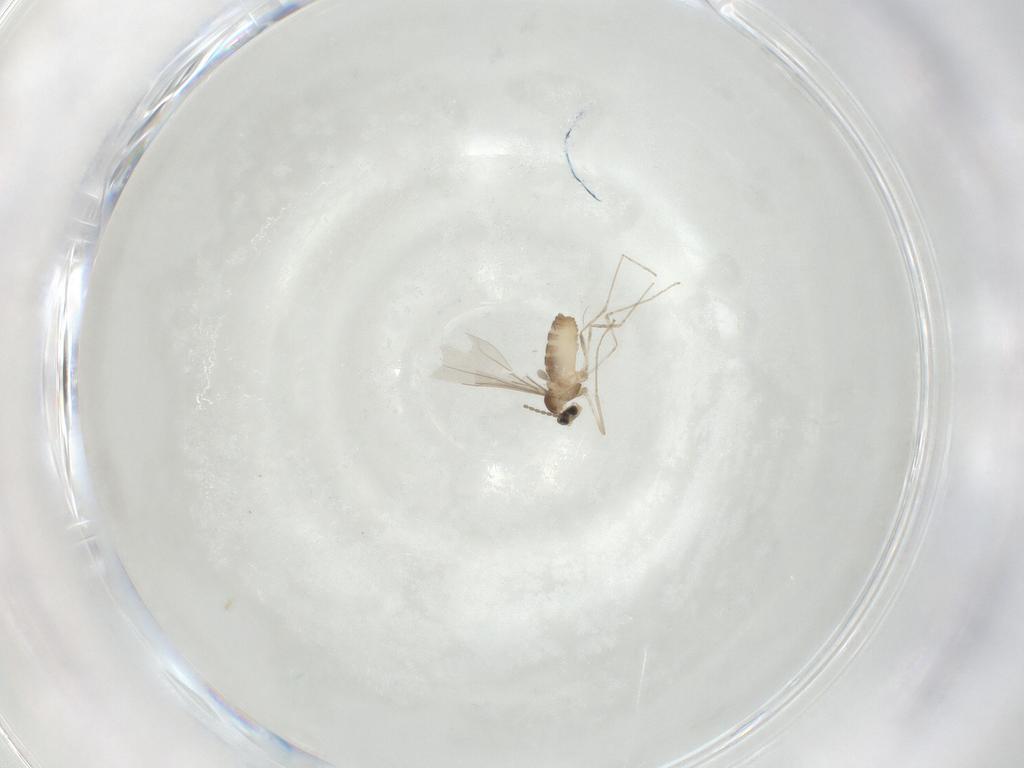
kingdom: Animalia
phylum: Arthropoda
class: Insecta
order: Diptera
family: Cecidomyiidae
